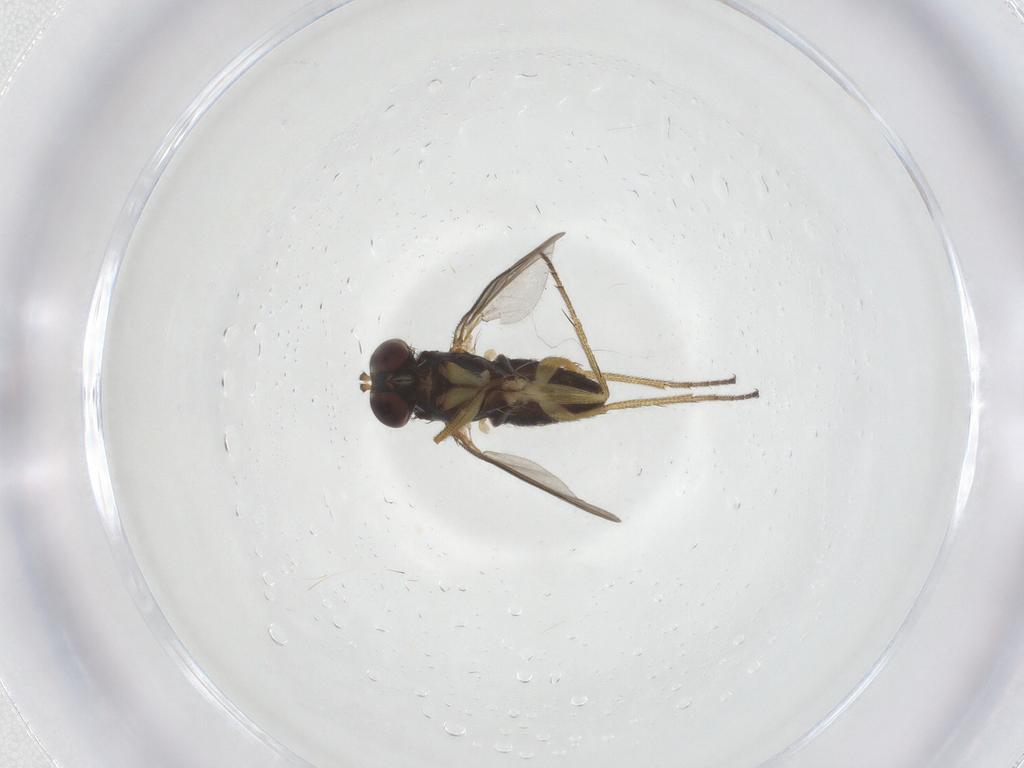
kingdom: Animalia
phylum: Arthropoda
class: Insecta
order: Diptera
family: Dolichopodidae
